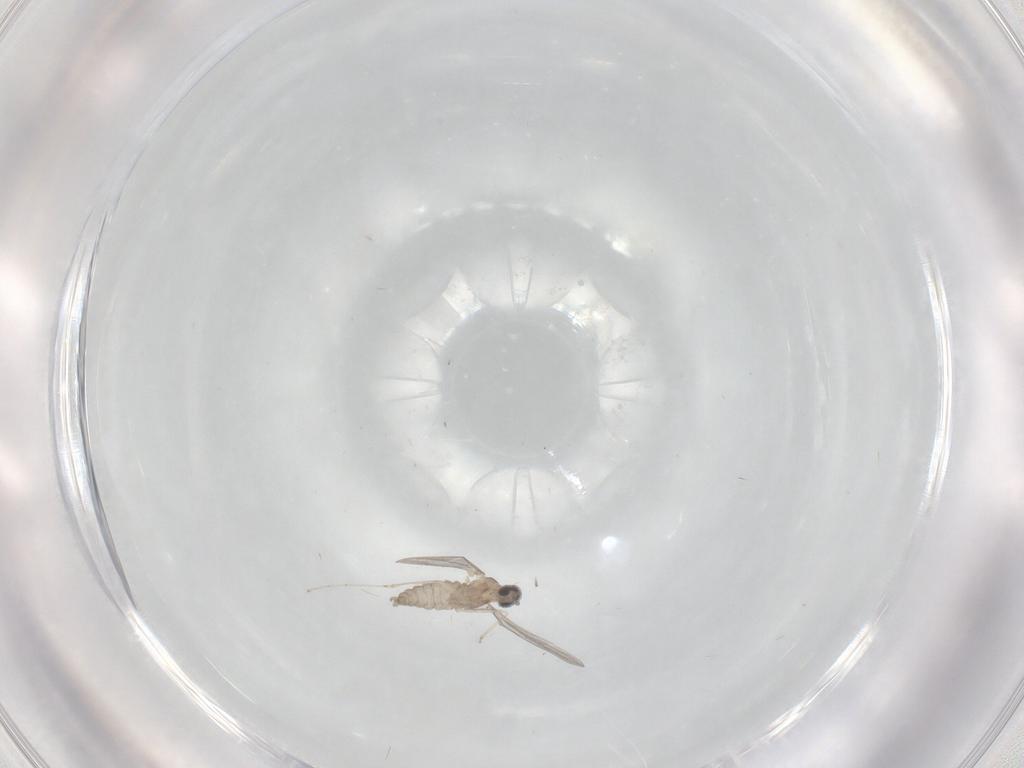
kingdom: Animalia
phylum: Arthropoda
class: Insecta
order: Diptera
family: Cecidomyiidae
